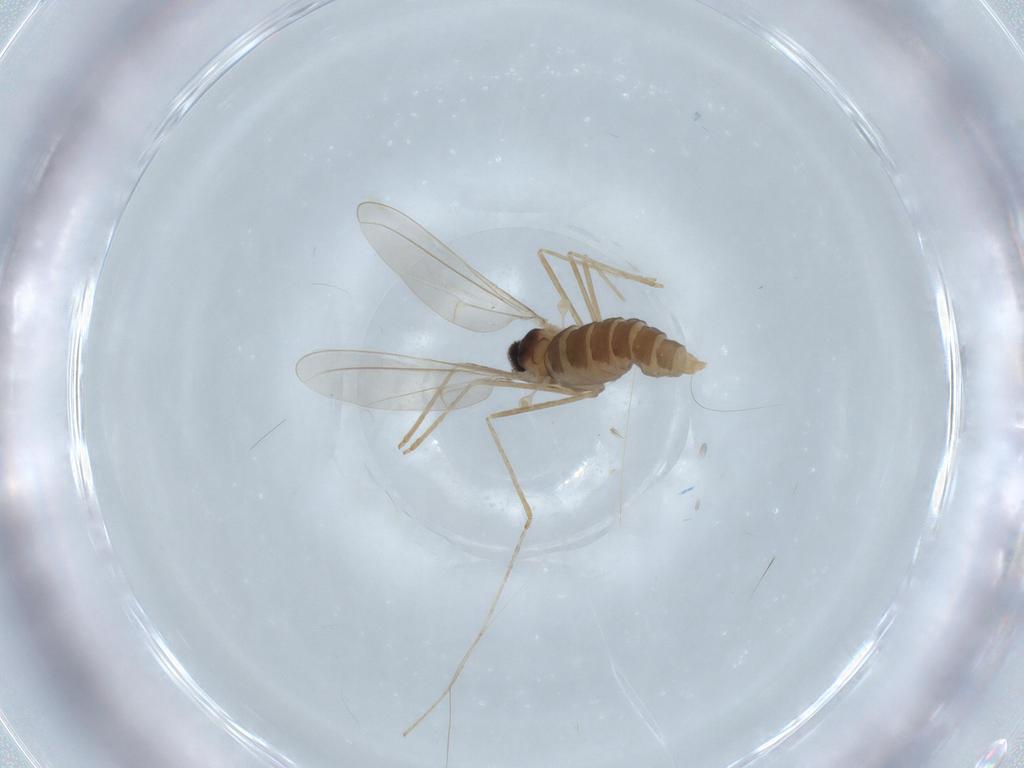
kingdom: Animalia
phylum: Arthropoda
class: Insecta
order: Diptera
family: Cecidomyiidae
